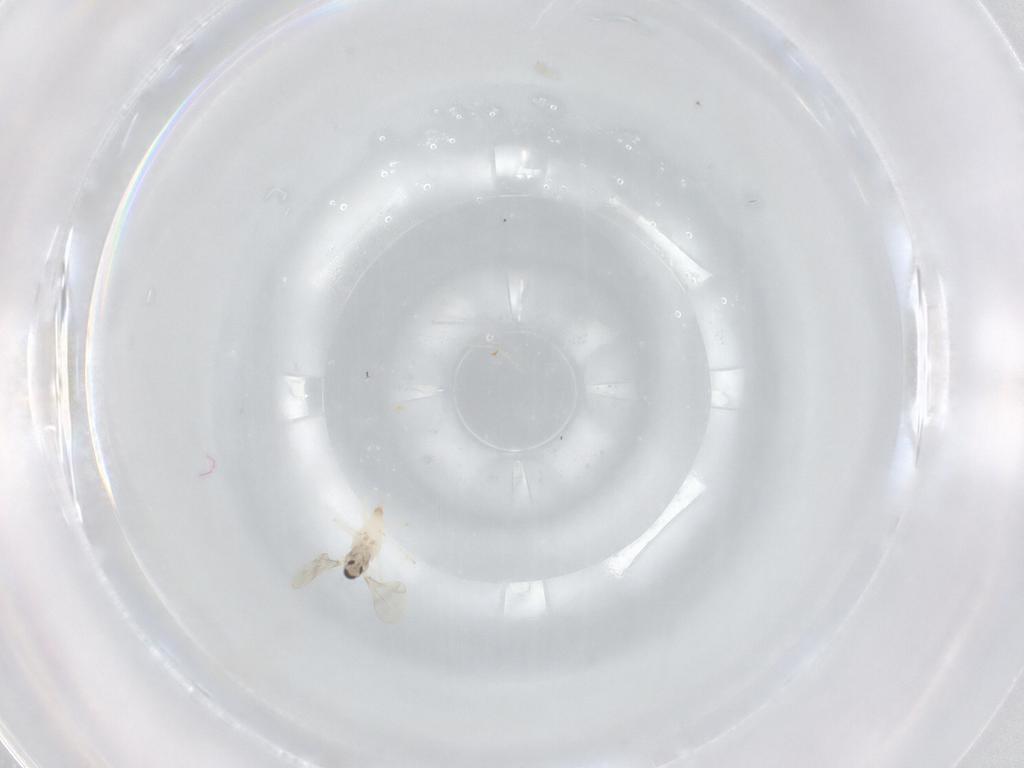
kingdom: Animalia
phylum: Arthropoda
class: Insecta
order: Diptera
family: Cecidomyiidae
